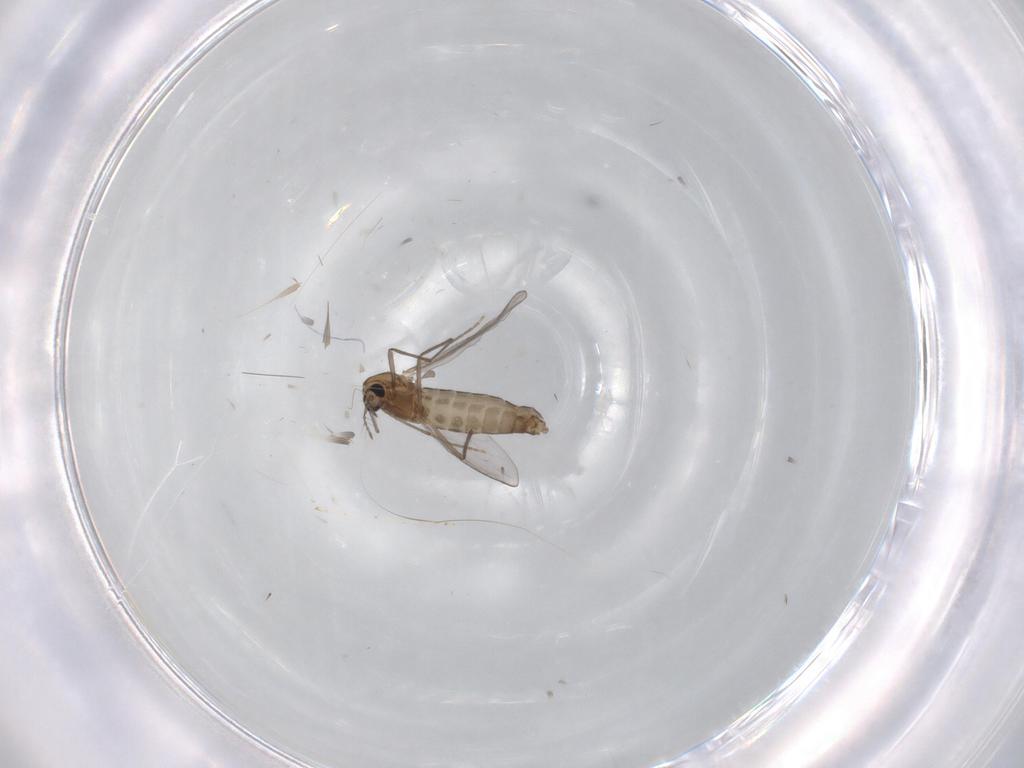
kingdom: Animalia
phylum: Arthropoda
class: Insecta
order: Diptera
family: Chironomidae
